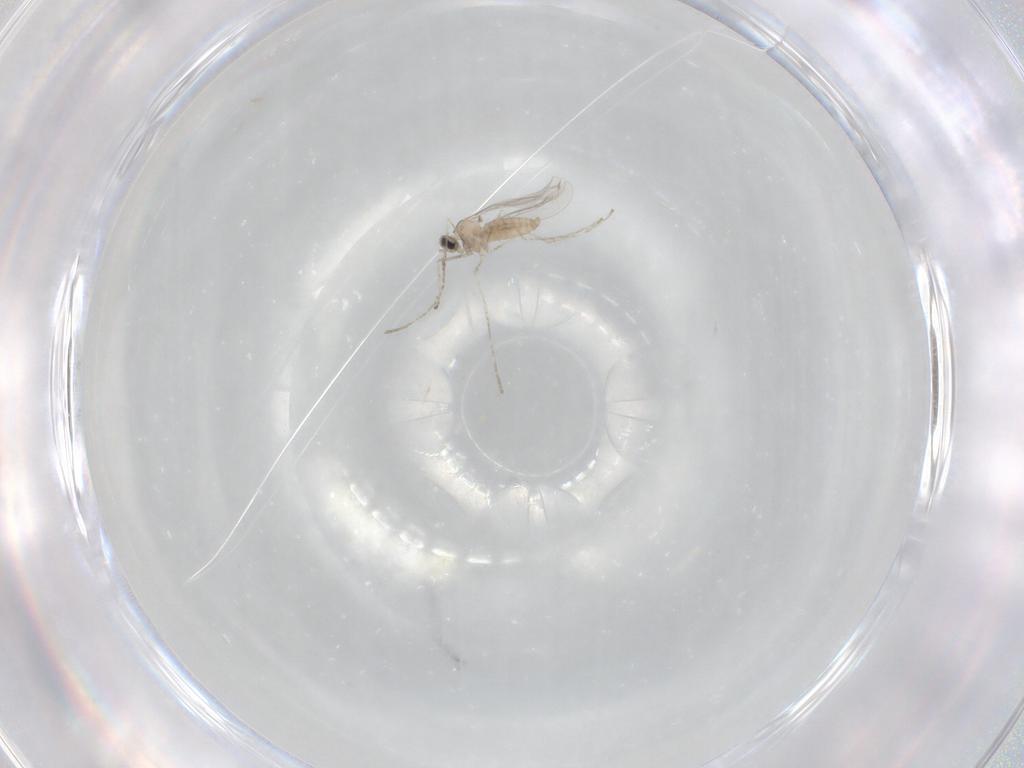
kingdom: Animalia
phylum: Arthropoda
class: Insecta
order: Diptera
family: Cecidomyiidae
